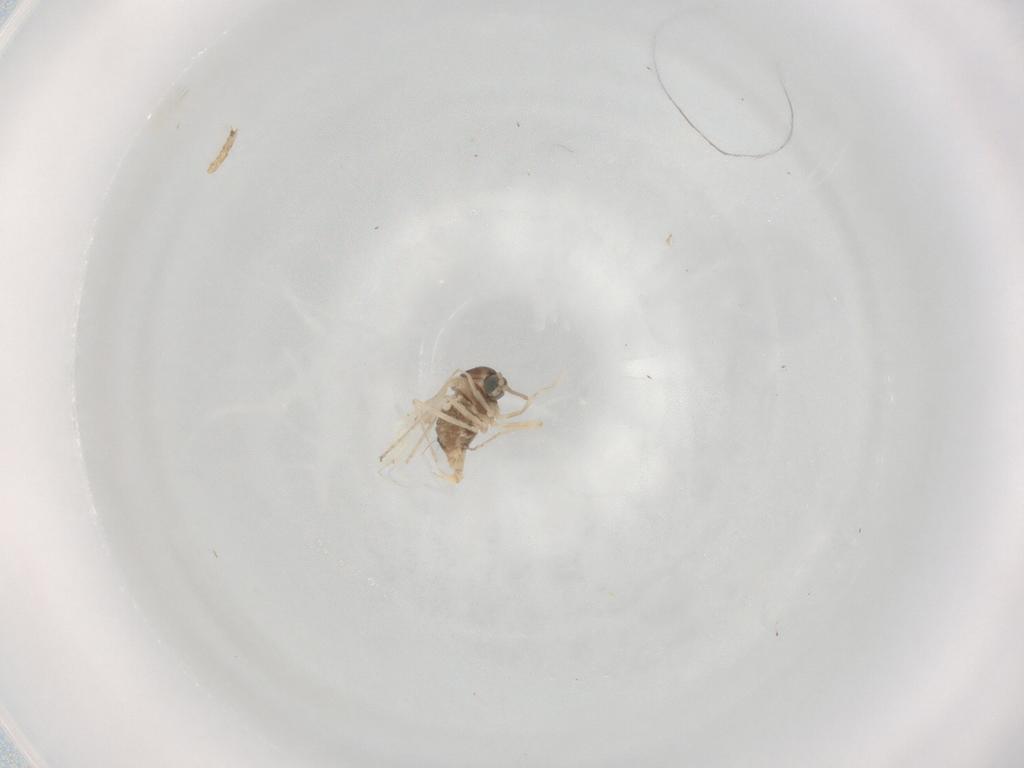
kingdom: Animalia
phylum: Arthropoda
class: Insecta
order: Diptera
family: Cecidomyiidae
